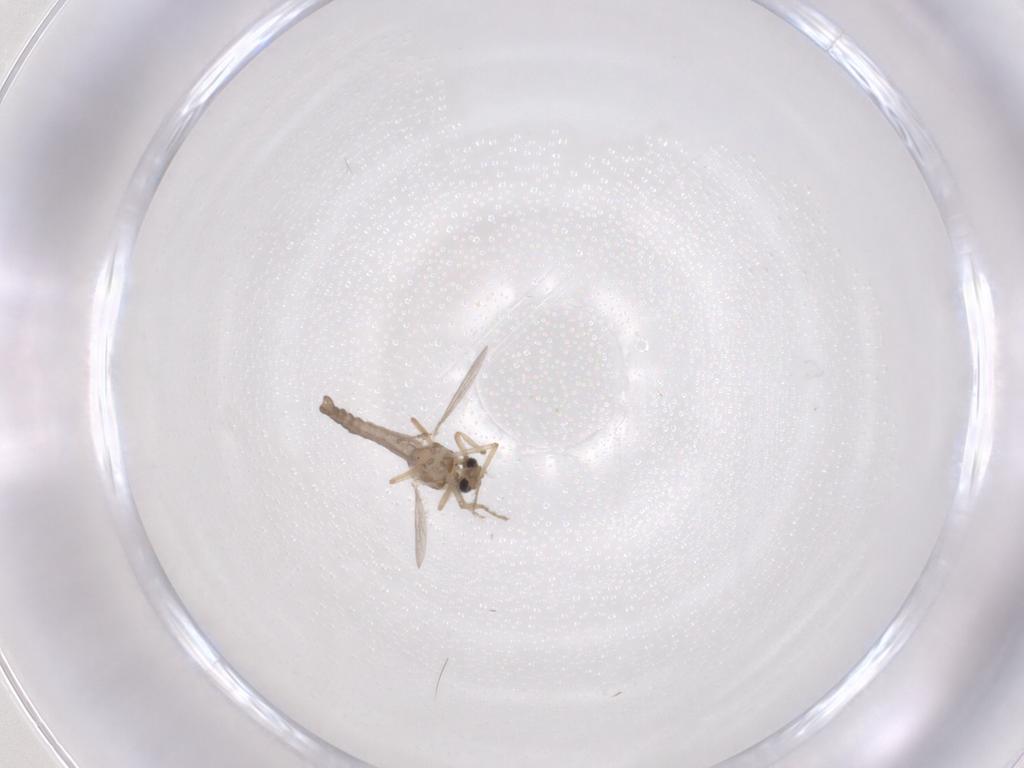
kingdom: Animalia
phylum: Arthropoda
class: Insecta
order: Diptera
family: Ceratopogonidae
